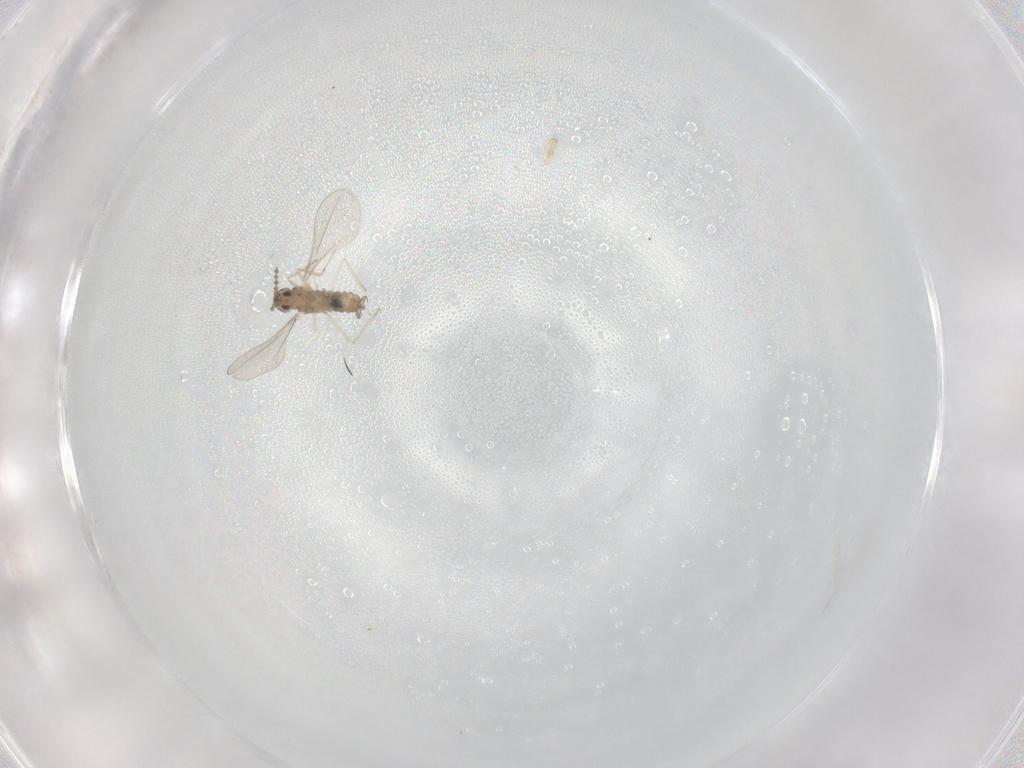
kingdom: Animalia
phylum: Arthropoda
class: Insecta
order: Diptera
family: Cecidomyiidae
